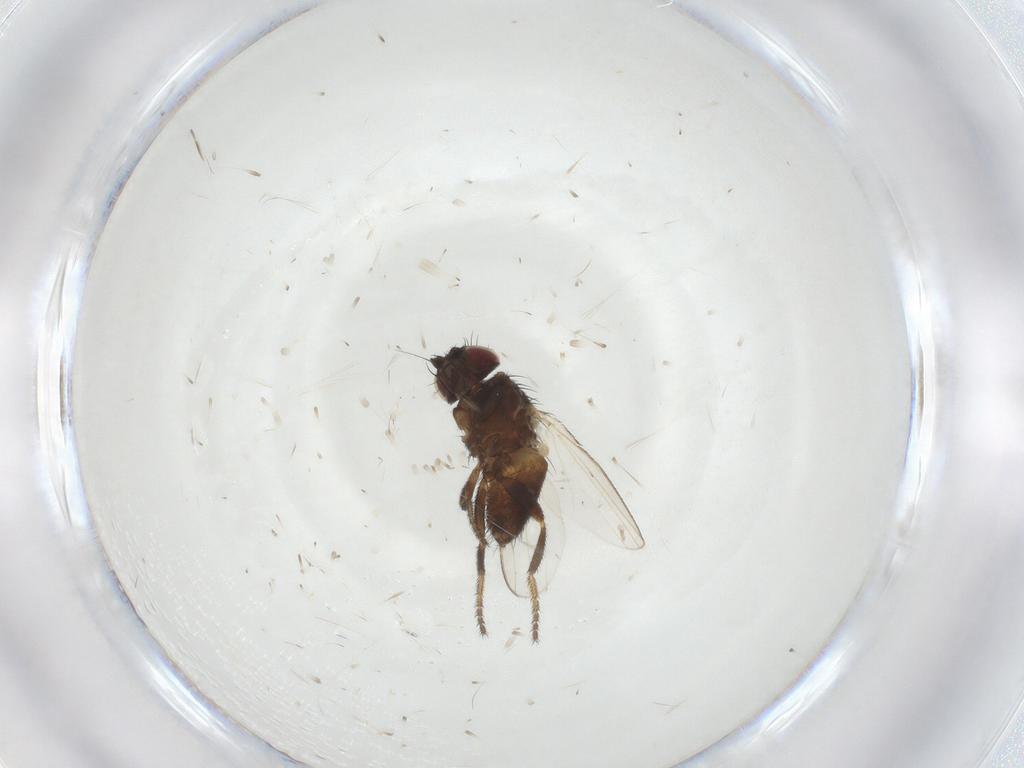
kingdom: Animalia
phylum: Arthropoda
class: Insecta
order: Diptera
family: Milichiidae
